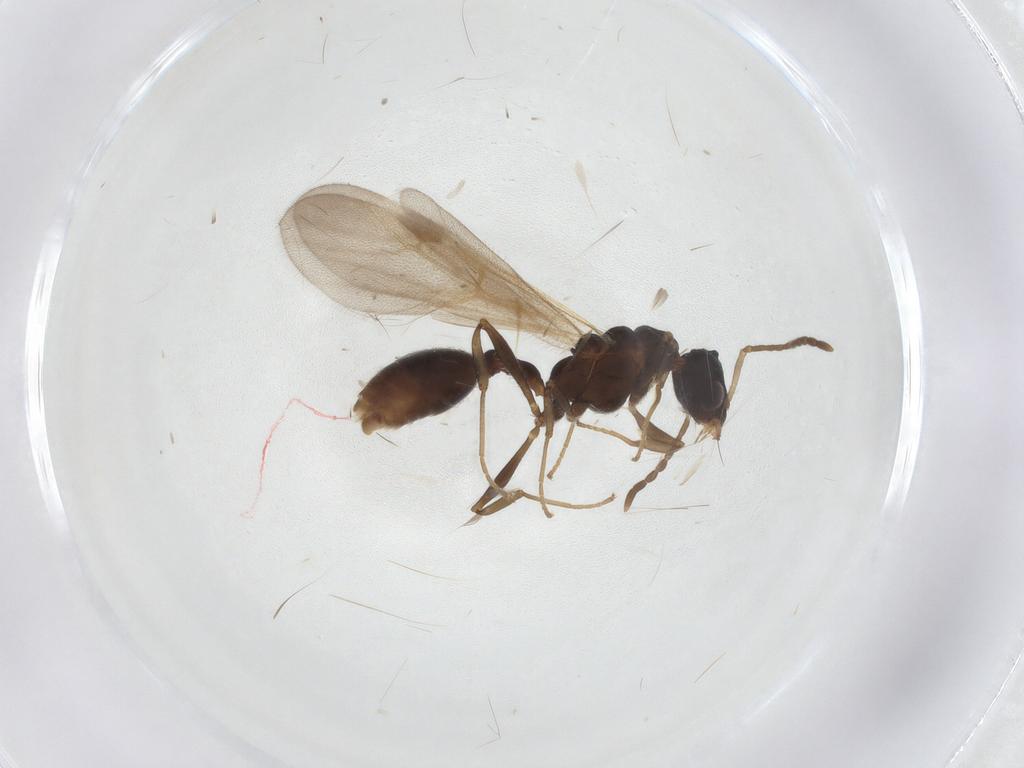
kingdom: Animalia
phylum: Arthropoda
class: Insecta
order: Hymenoptera
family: Formicidae
